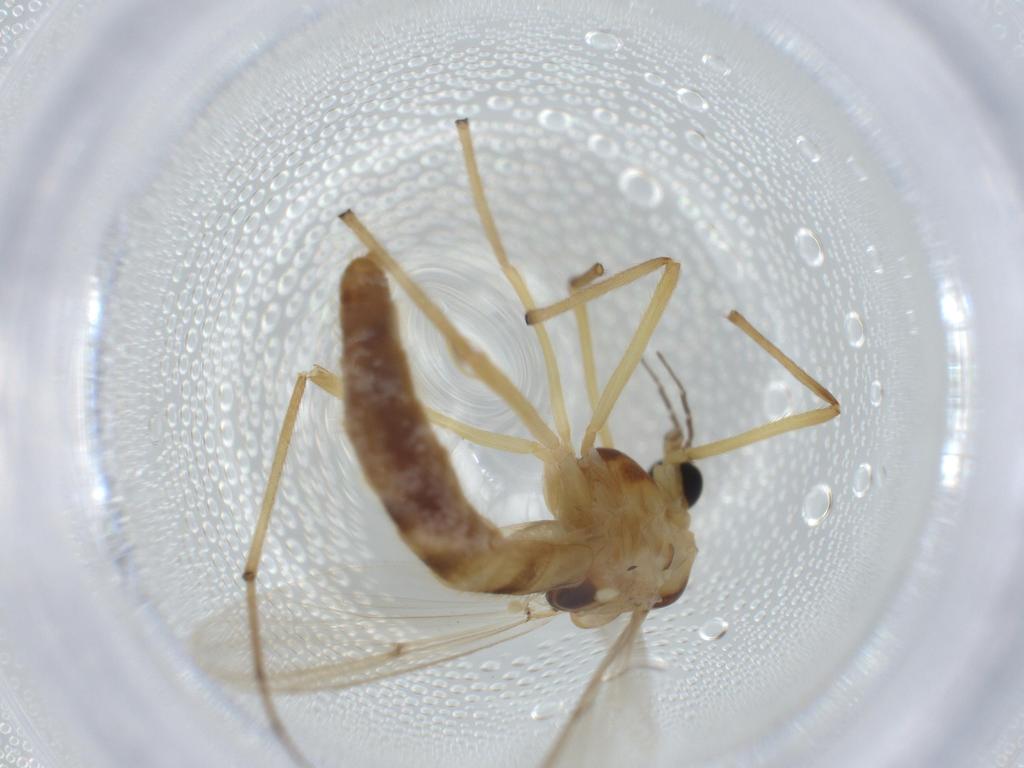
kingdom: Animalia
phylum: Arthropoda
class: Insecta
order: Diptera
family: Chironomidae
